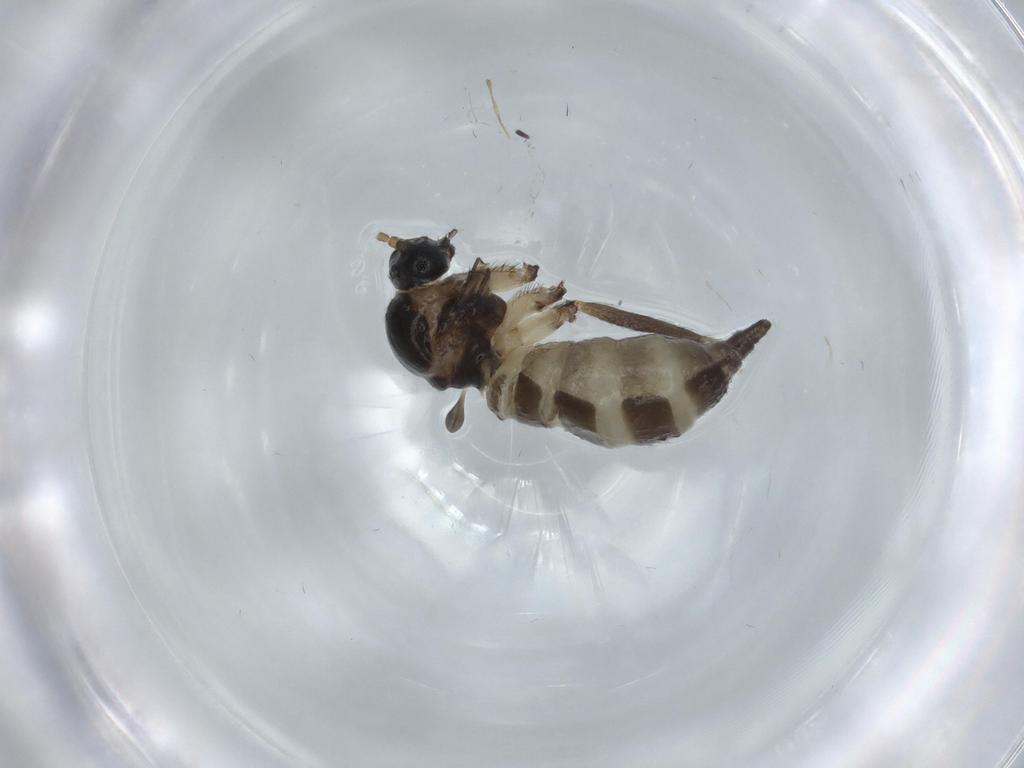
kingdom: Animalia
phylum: Arthropoda
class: Insecta
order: Diptera
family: Sciaridae
